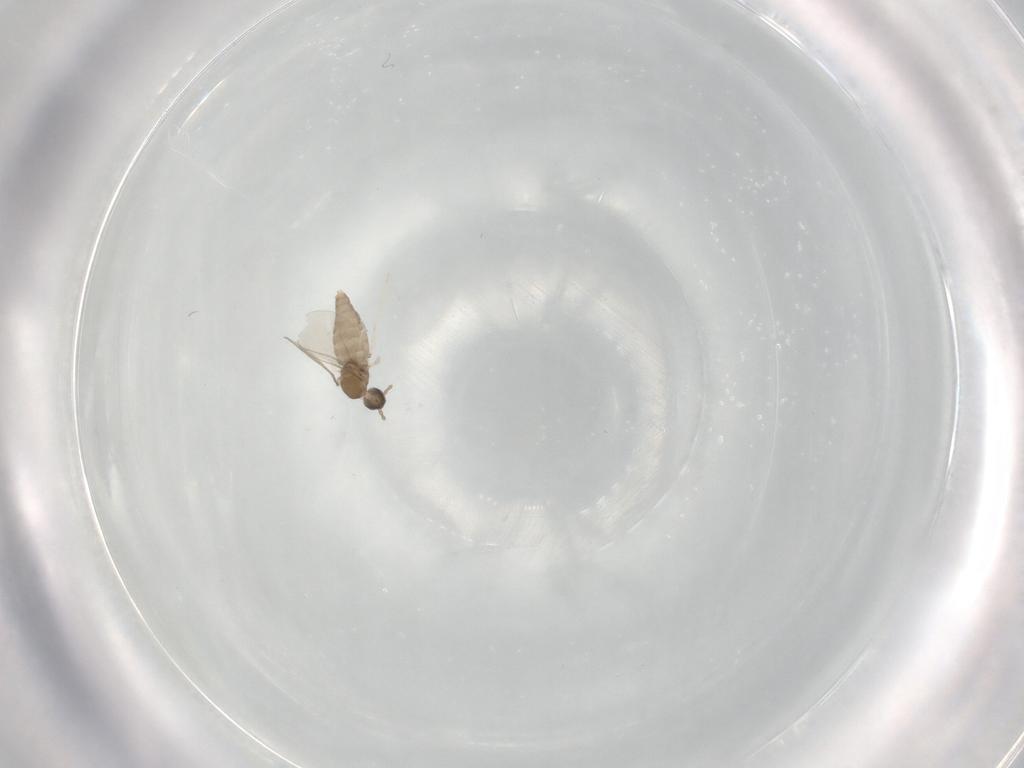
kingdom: Animalia
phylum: Arthropoda
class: Insecta
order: Diptera
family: Cecidomyiidae
